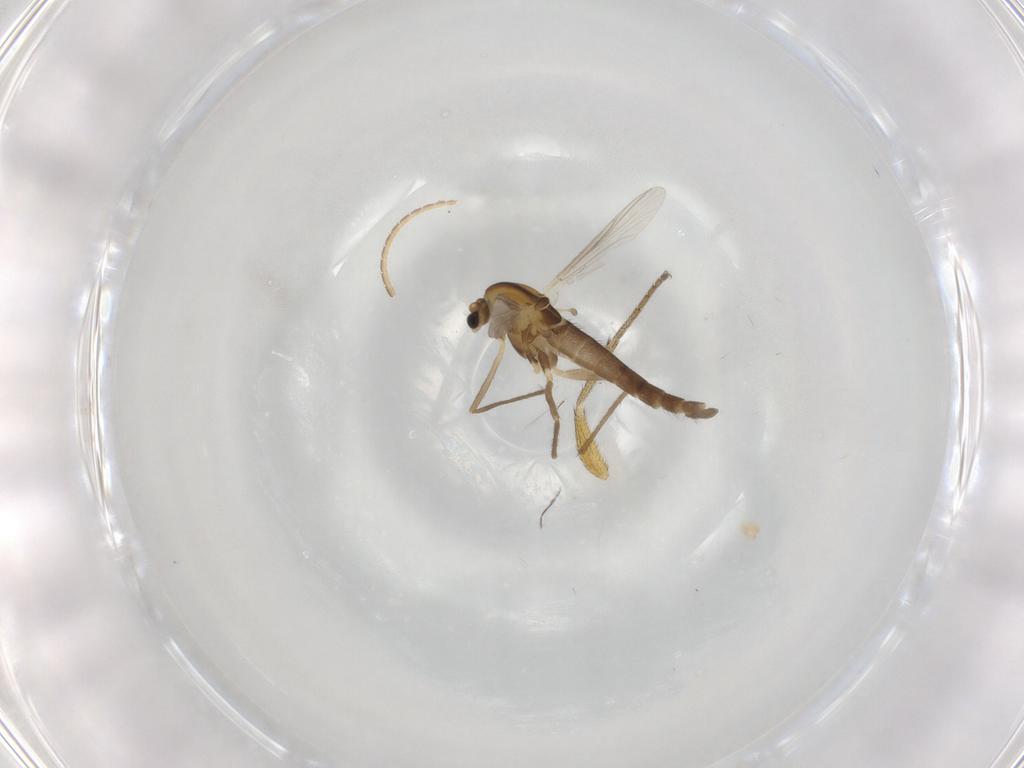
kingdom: Animalia
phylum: Arthropoda
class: Insecta
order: Diptera
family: Chironomidae
